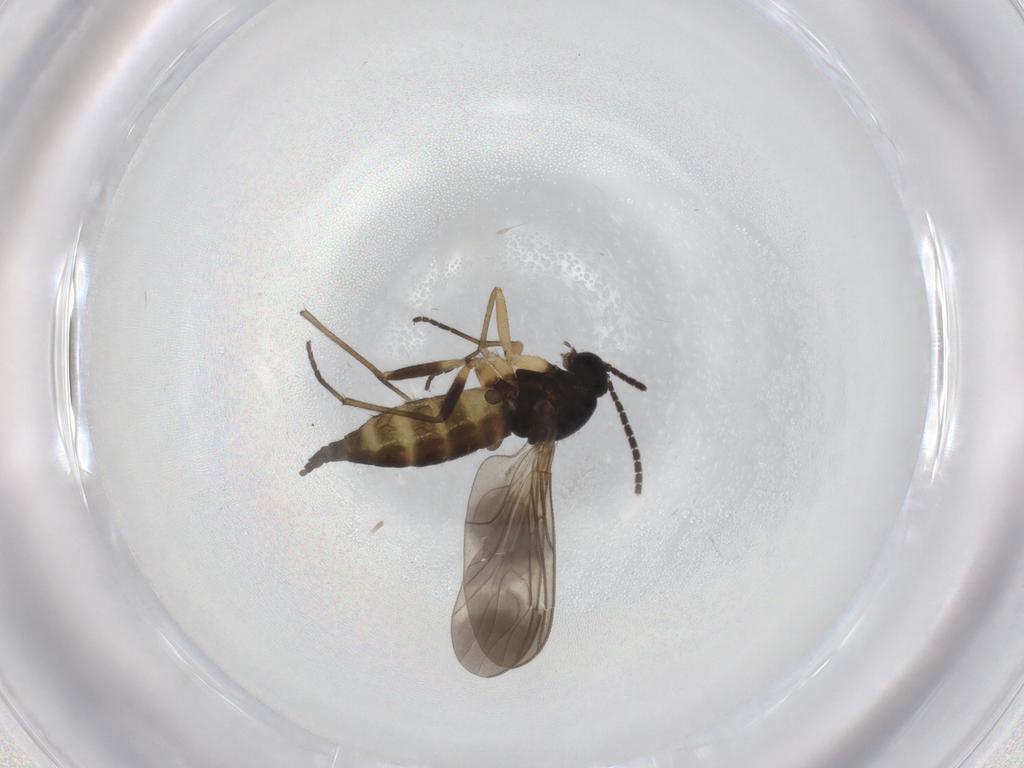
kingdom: Animalia
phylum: Arthropoda
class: Insecta
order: Diptera
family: Sciaridae
